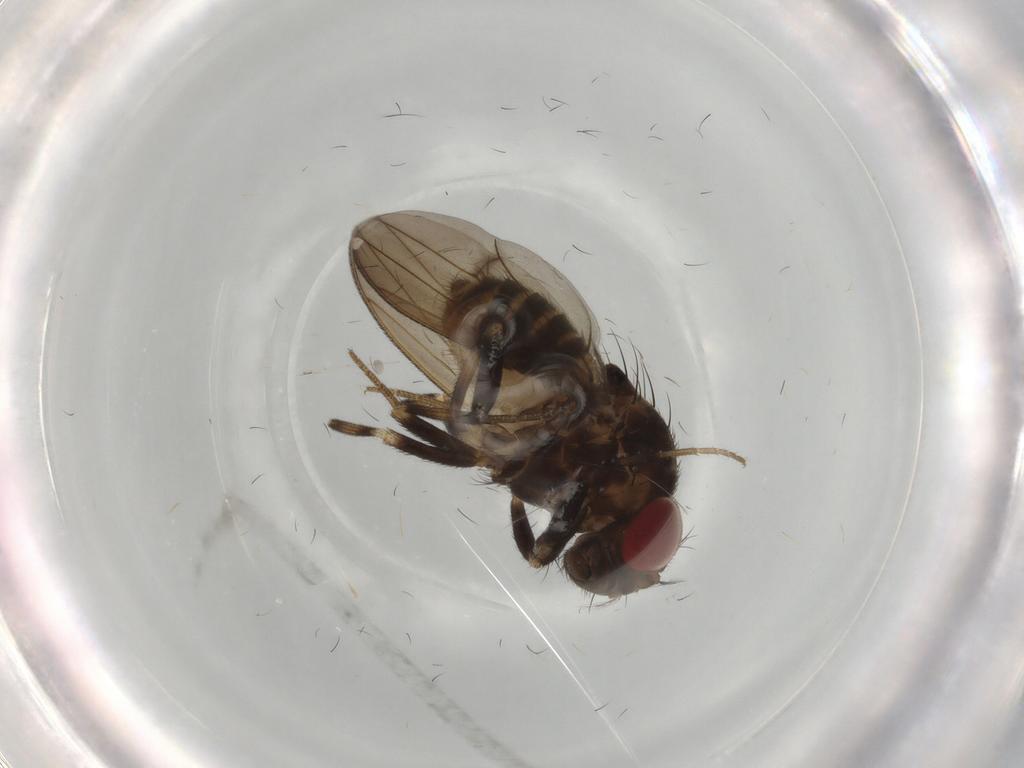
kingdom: Animalia
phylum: Arthropoda
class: Insecta
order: Diptera
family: Drosophilidae
